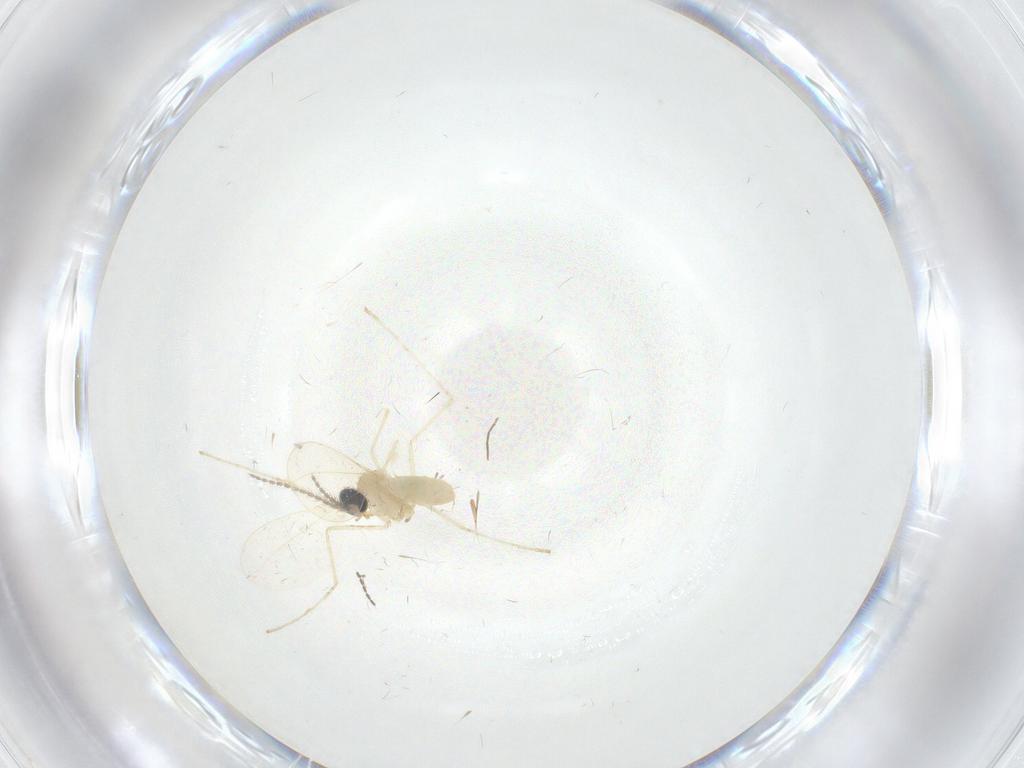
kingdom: Animalia
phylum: Arthropoda
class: Insecta
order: Diptera
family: Cecidomyiidae
